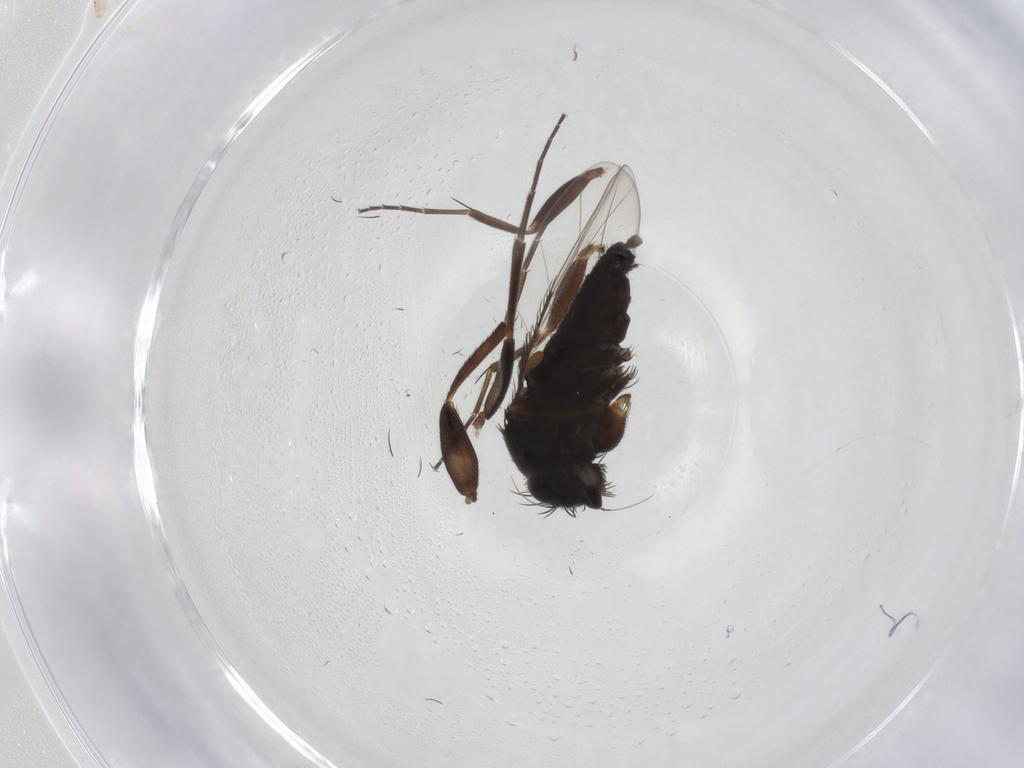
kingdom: Animalia
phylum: Arthropoda
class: Insecta
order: Diptera
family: Phoridae
